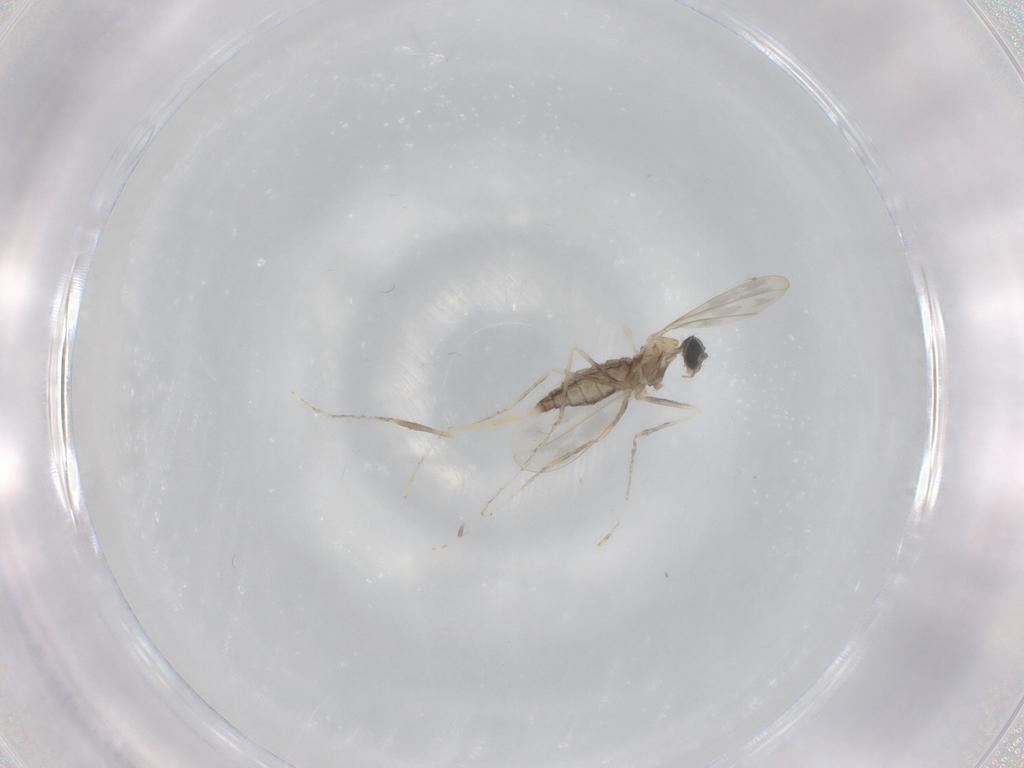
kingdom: Animalia
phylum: Arthropoda
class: Insecta
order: Diptera
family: Cecidomyiidae
